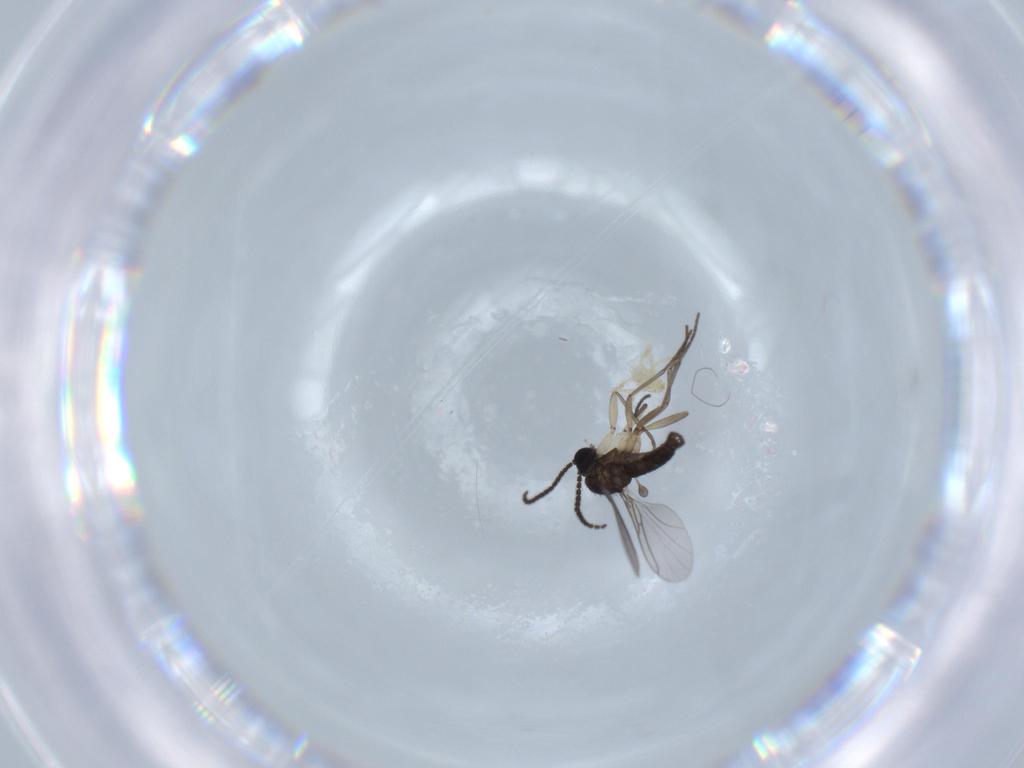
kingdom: Animalia
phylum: Arthropoda
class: Insecta
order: Diptera
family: Sciaridae
